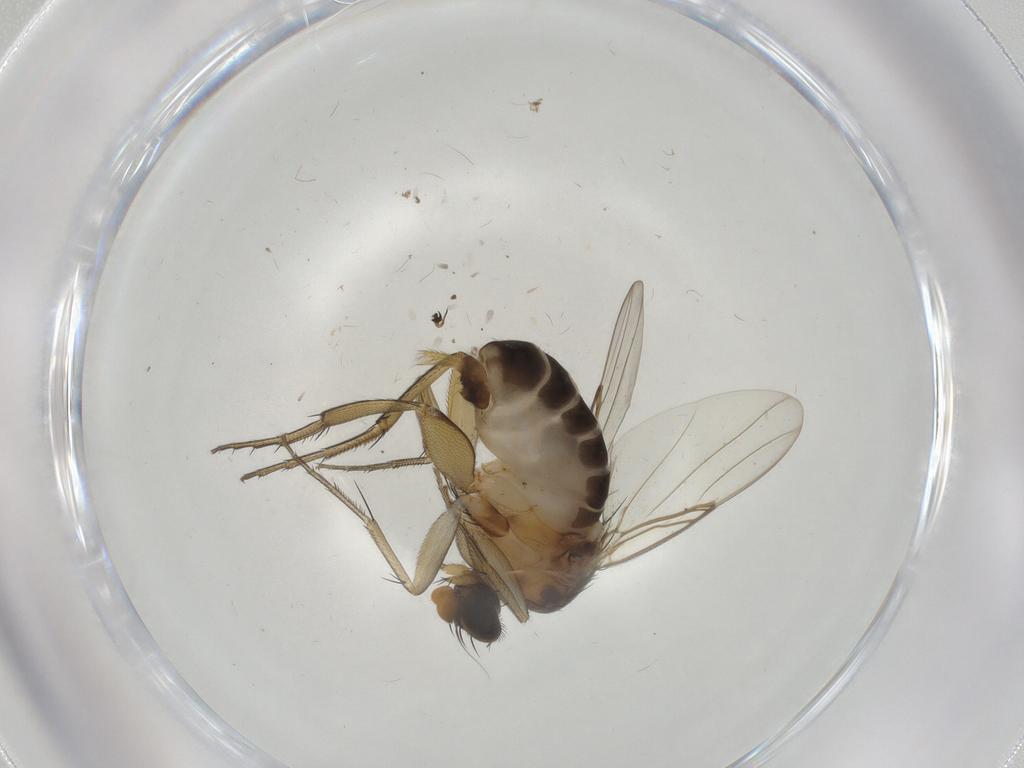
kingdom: Animalia
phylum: Arthropoda
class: Insecta
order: Diptera
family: Phoridae
